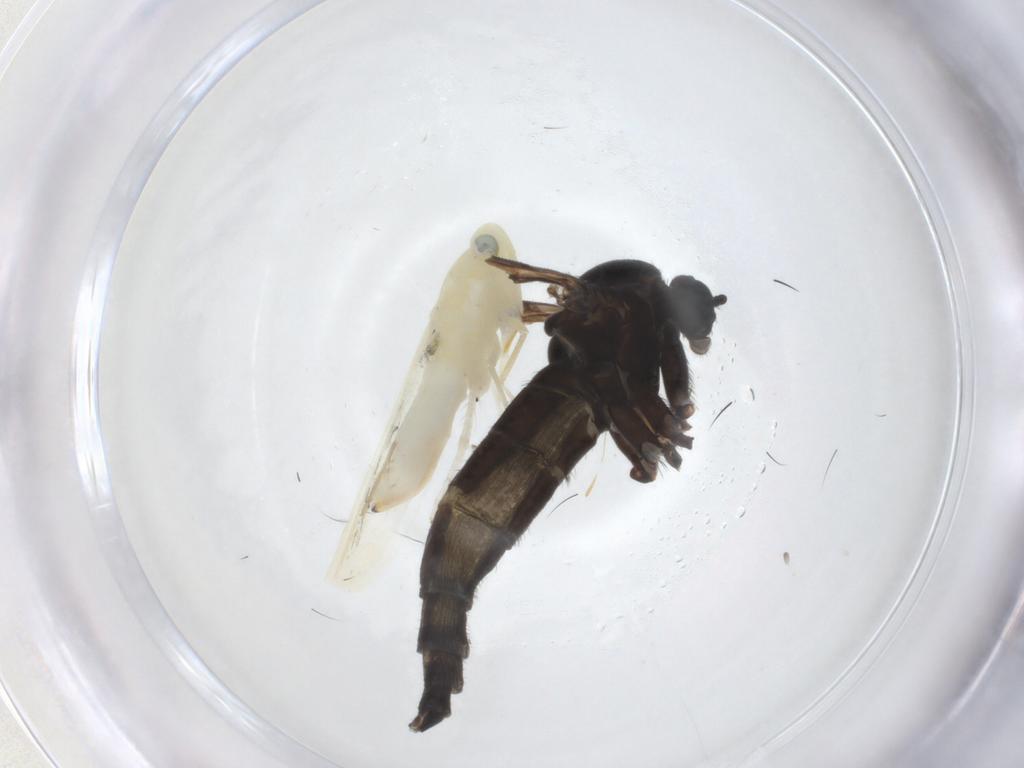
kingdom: Animalia
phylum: Arthropoda
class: Insecta
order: Hemiptera
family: Cicadellidae
